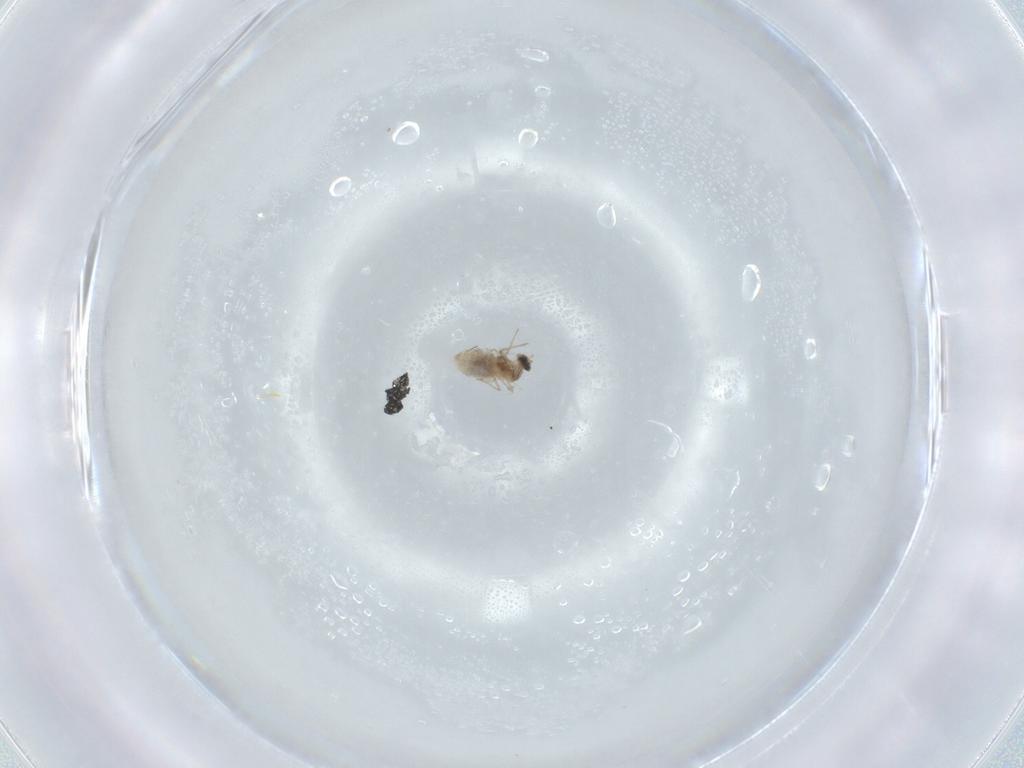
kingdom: Animalia
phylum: Arthropoda
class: Insecta
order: Diptera
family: Chironomidae
